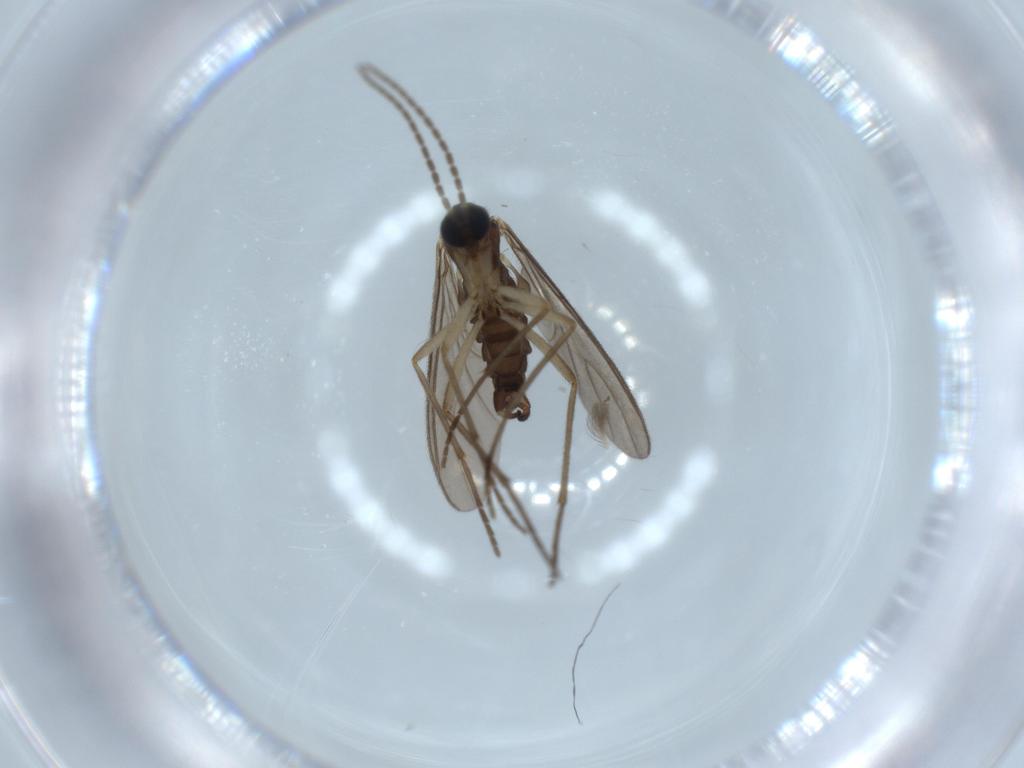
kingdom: Animalia
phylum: Arthropoda
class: Insecta
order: Diptera
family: Sciaridae
